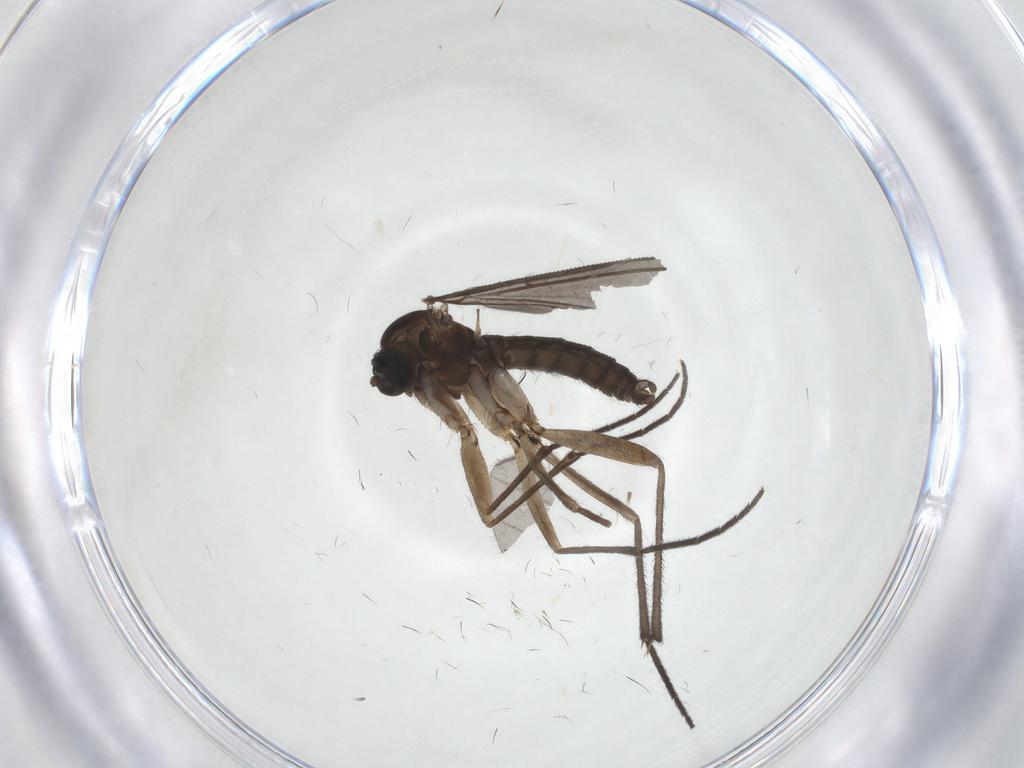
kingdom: Animalia
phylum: Arthropoda
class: Insecta
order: Diptera
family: Sciaridae
